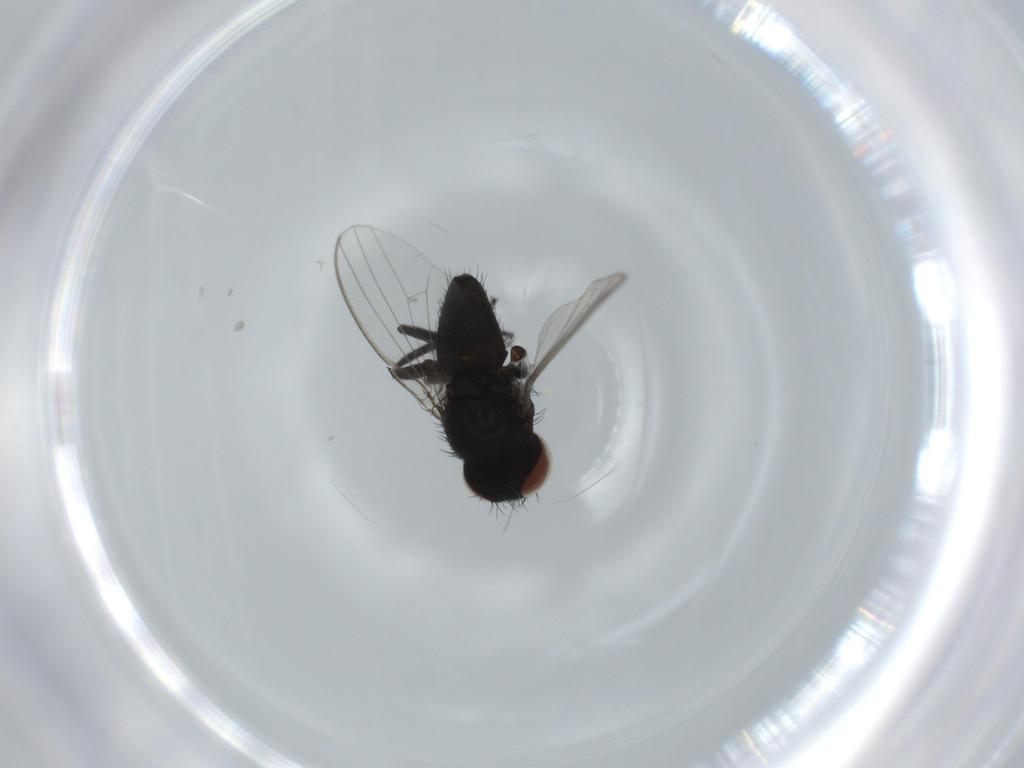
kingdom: Animalia
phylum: Arthropoda
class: Insecta
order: Diptera
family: Milichiidae
